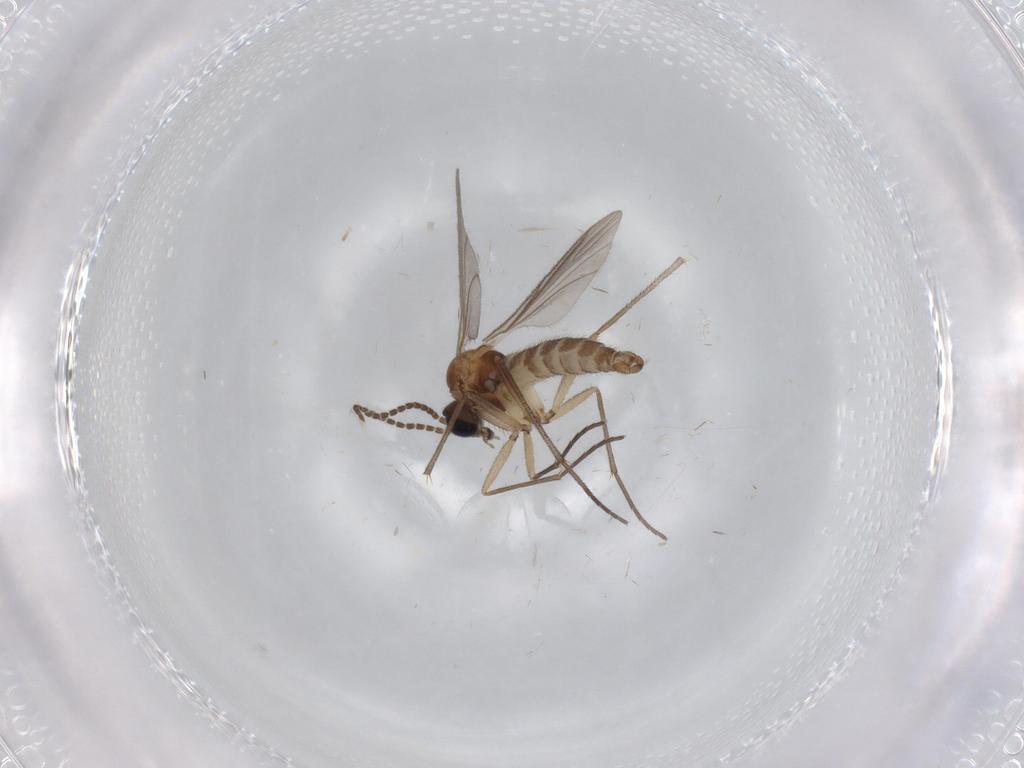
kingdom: Animalia
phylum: Arthropoda
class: Insecta
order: Diptera
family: Sciaridae
